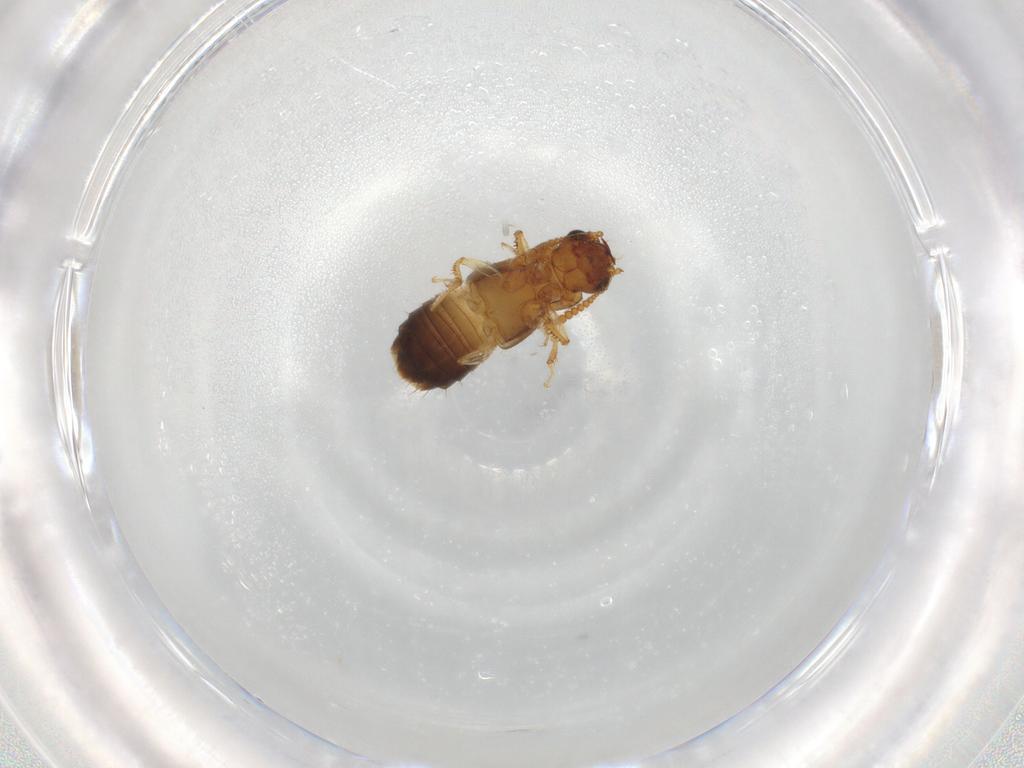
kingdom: Animalia
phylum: Arthropoda
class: Insecta
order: Coleoptera
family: Staphylinidae
